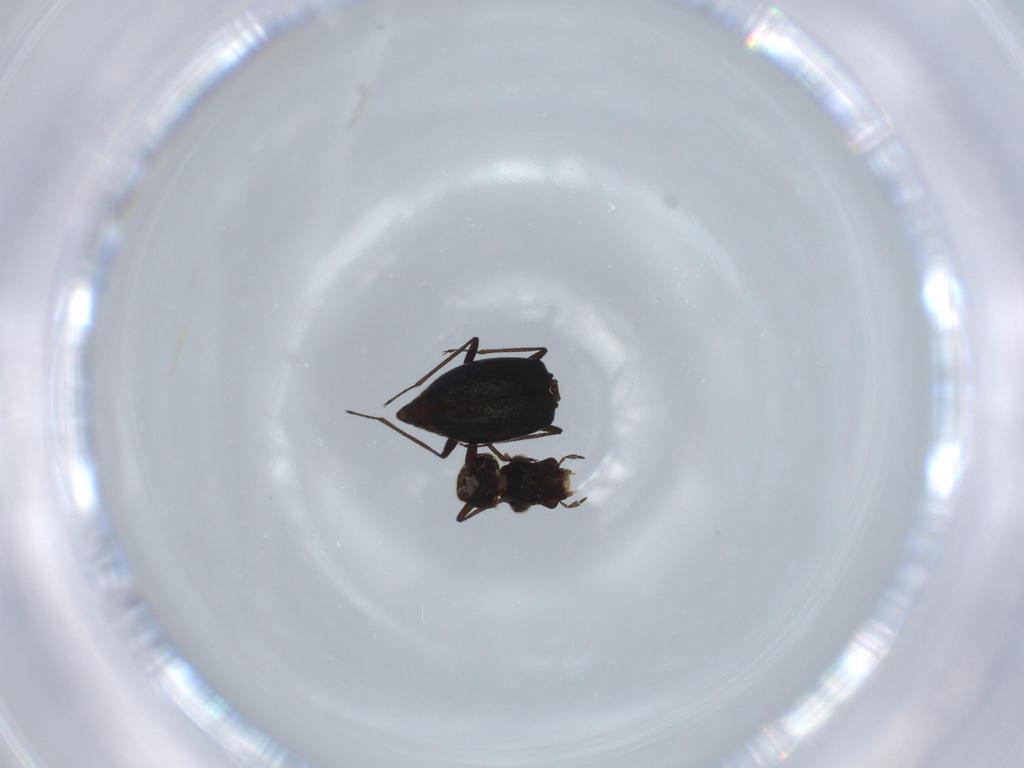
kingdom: Animalia
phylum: Arthropoda
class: Insecta
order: Coleoptera
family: Hydraenidae
